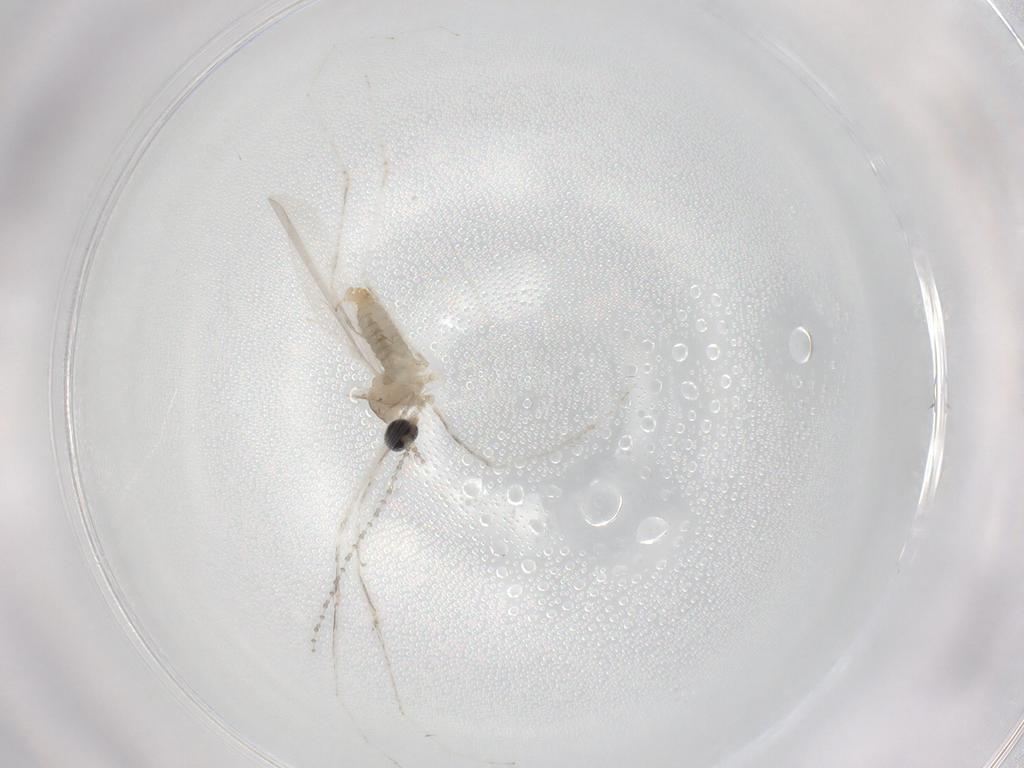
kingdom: Animalia
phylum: Arthropoda
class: Insecta
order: Diptera
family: Cecidomyiidae
